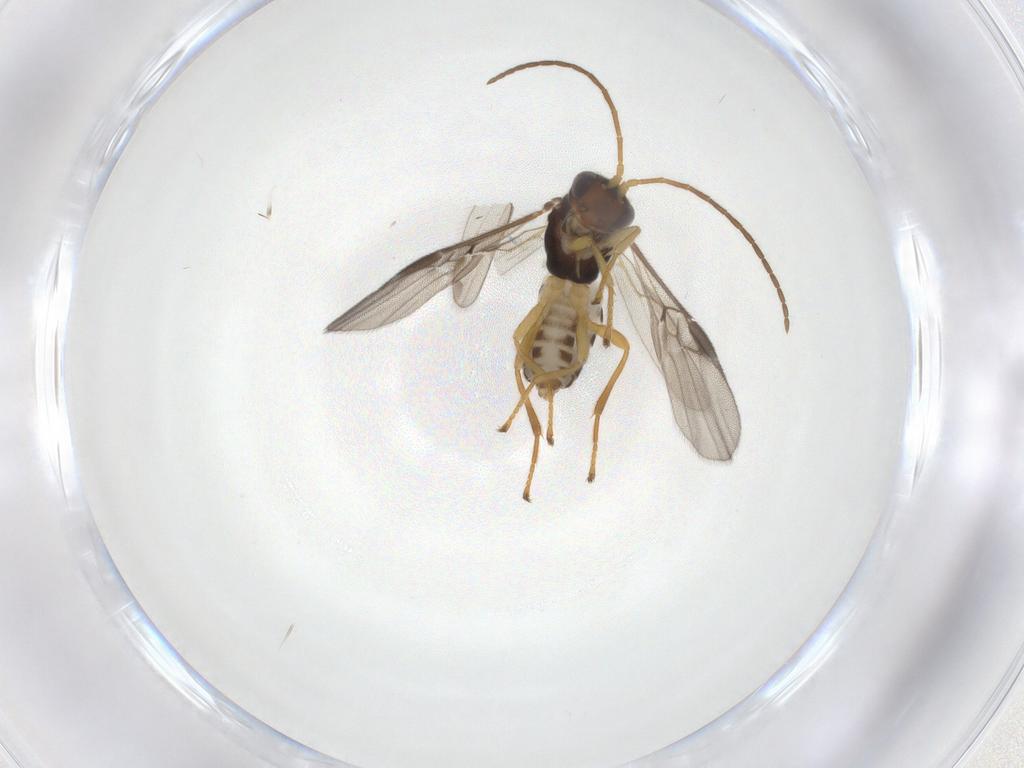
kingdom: Animalia
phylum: Arthropoda
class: Insecta
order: Hymenoptera
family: Braconidae
